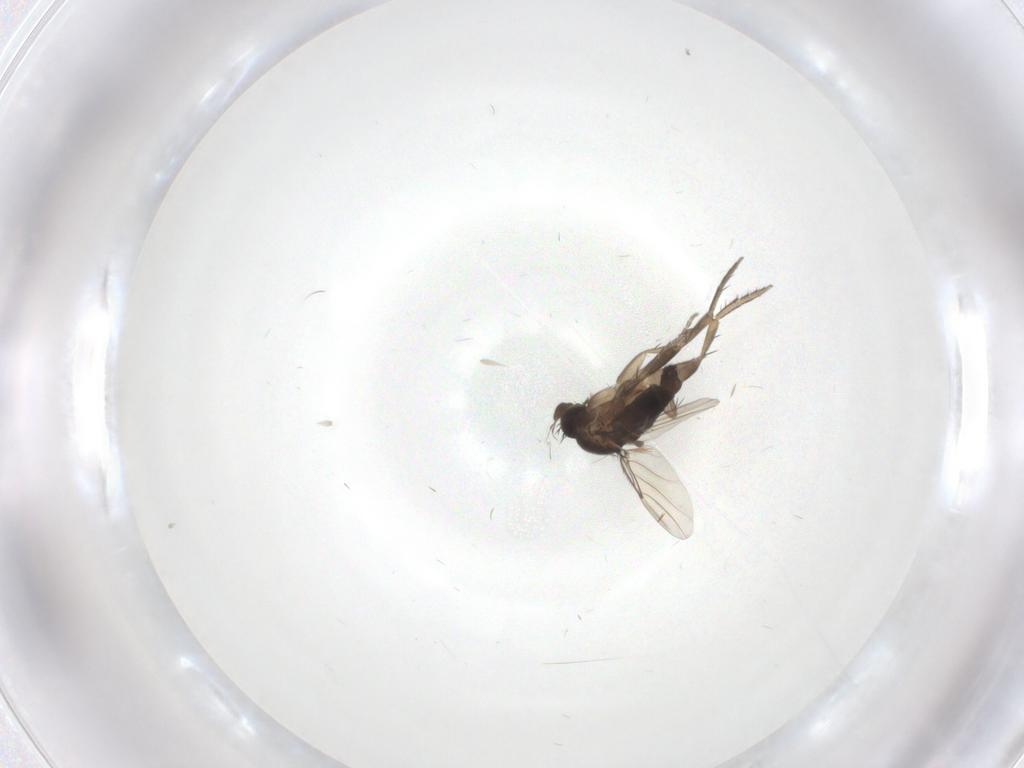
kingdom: Animalia
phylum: Arthropoda
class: Insecta
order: Diptera
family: Phoridae
